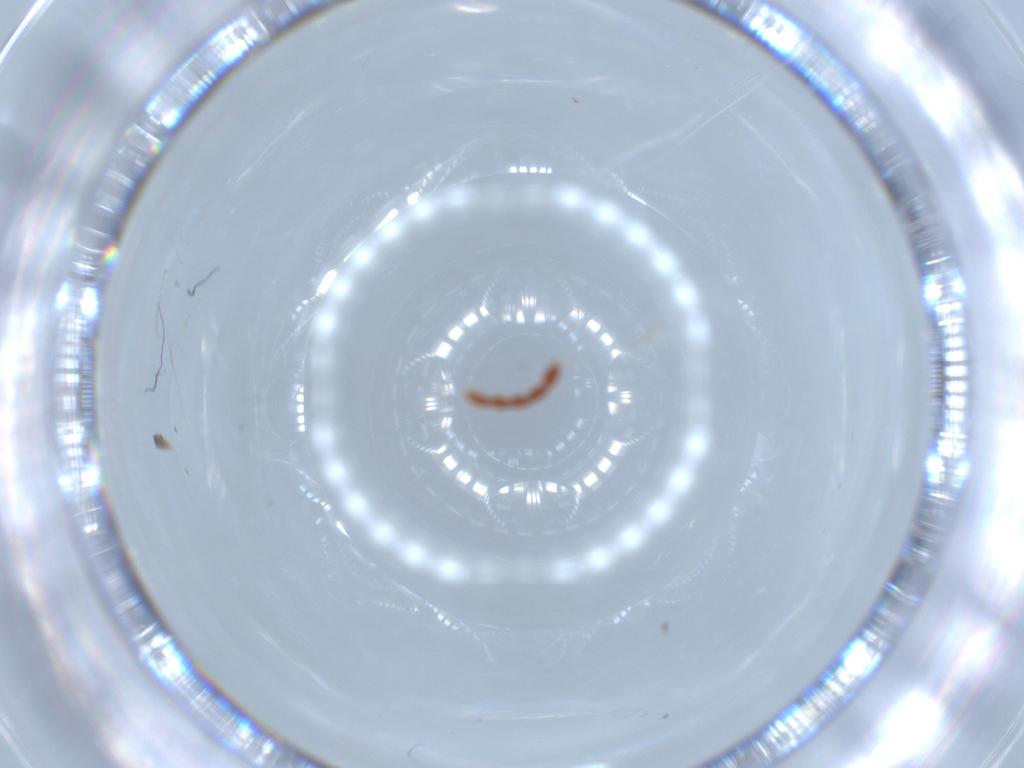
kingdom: Animalia
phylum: Arthropoda
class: Insecta
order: Coleoptera
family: Eucnemidae
